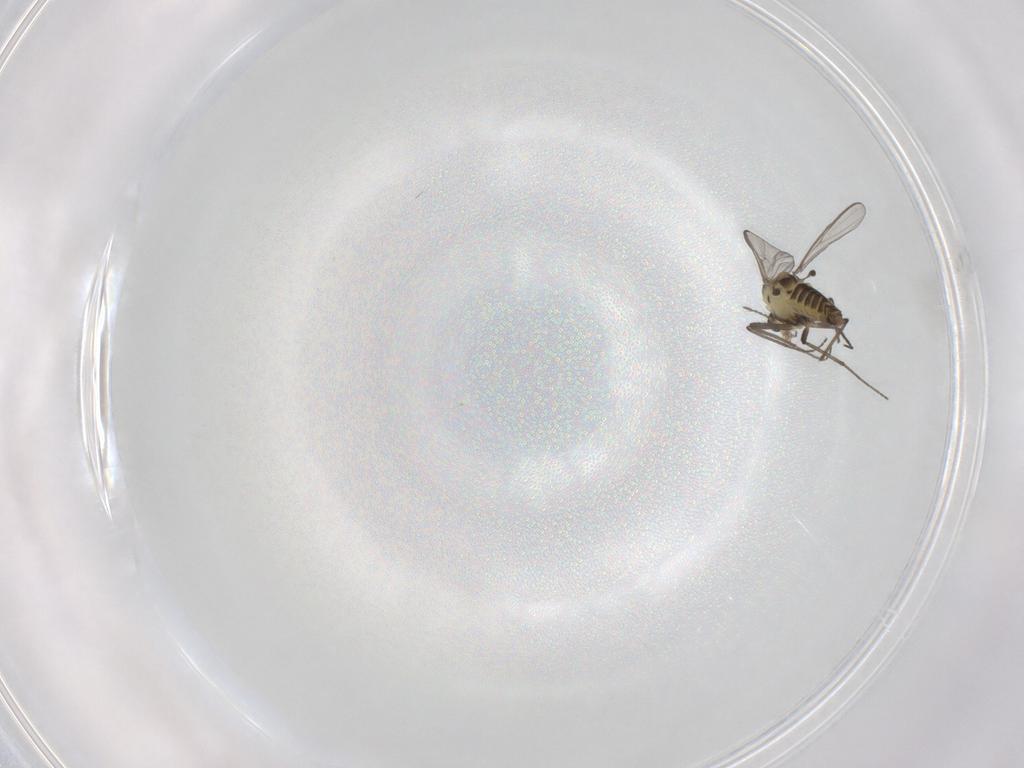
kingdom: Animalia
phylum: Arthropoda
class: Insecta
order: Diptera
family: Chironomidae
